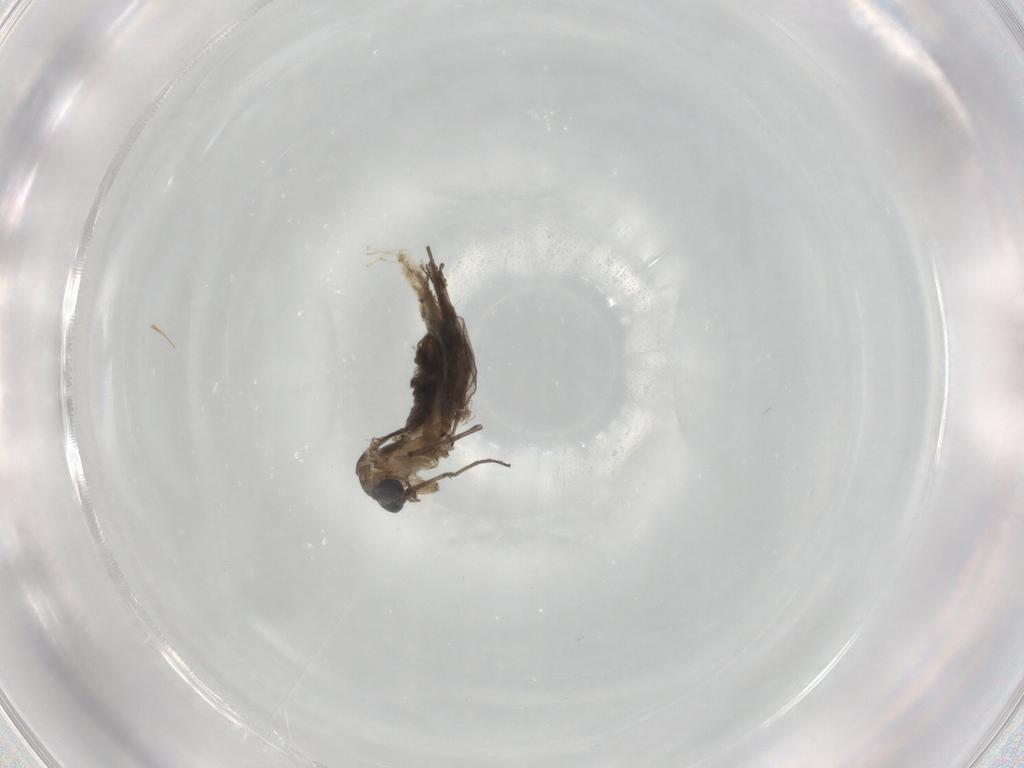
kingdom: Animalia
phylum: Arthropoda
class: Insecta
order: Diptera
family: Sciaridae
